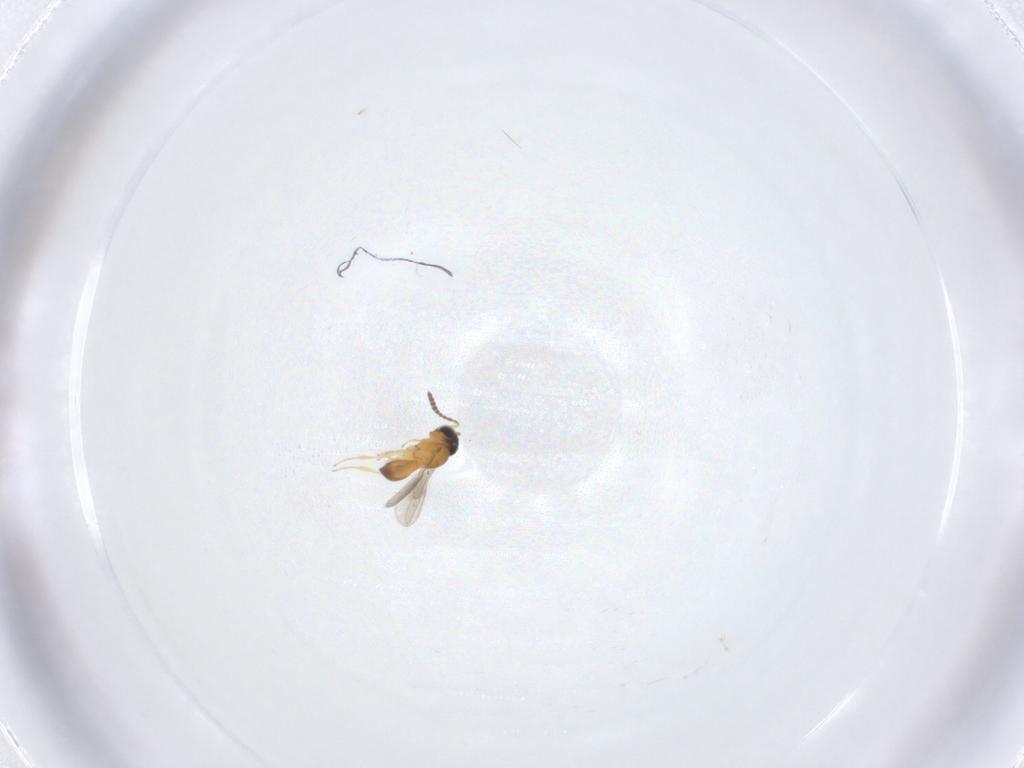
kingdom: Animalia
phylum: Arthropoda
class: Insecta
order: Hymenoptera
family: Scelionidae
